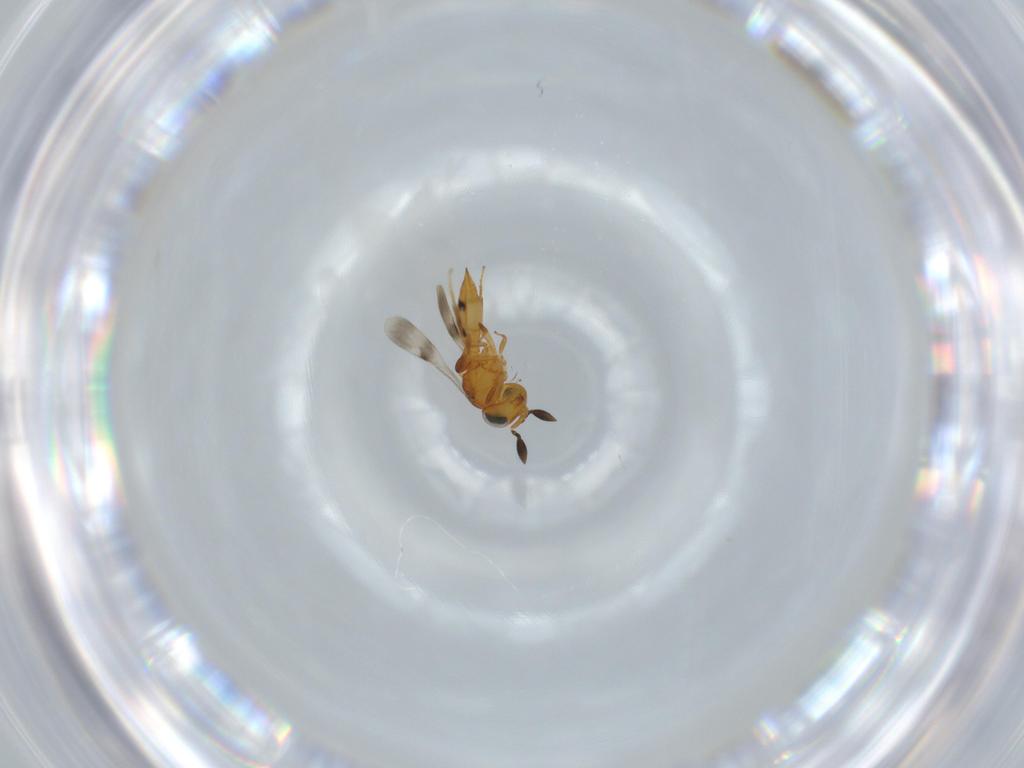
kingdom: Animalia
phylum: Arthropoda
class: Insecta
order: Hymenoptera
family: Scelionidae
